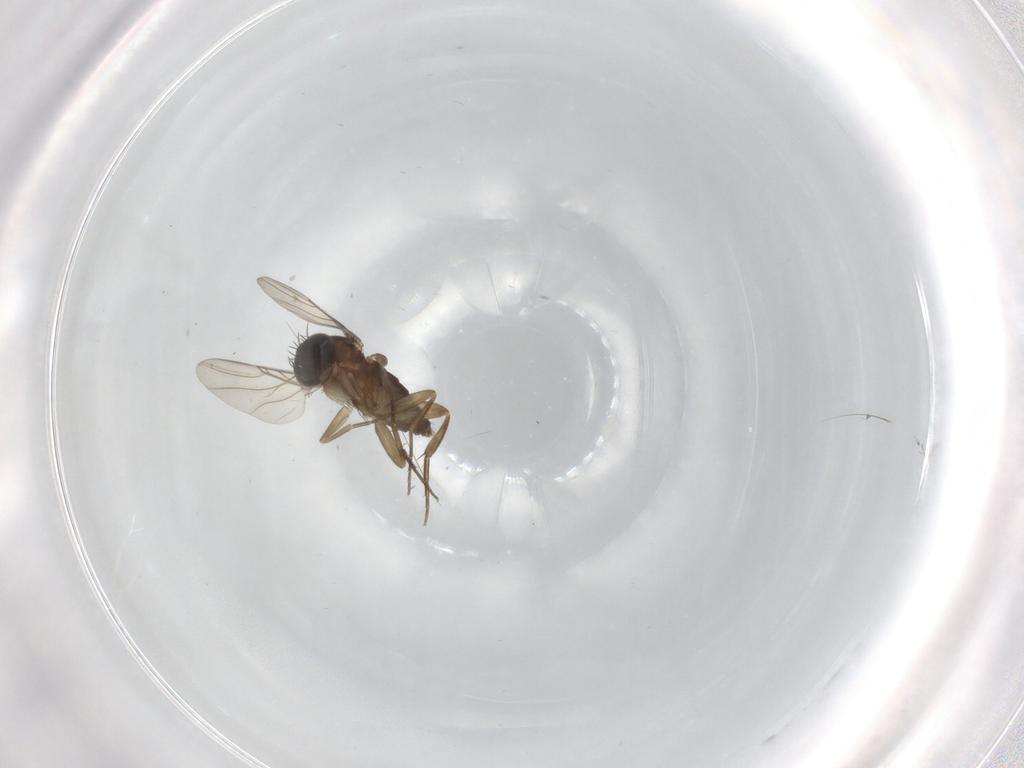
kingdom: Animalia
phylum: Arthropoda
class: Insecta
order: Diptera
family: Phoridae
